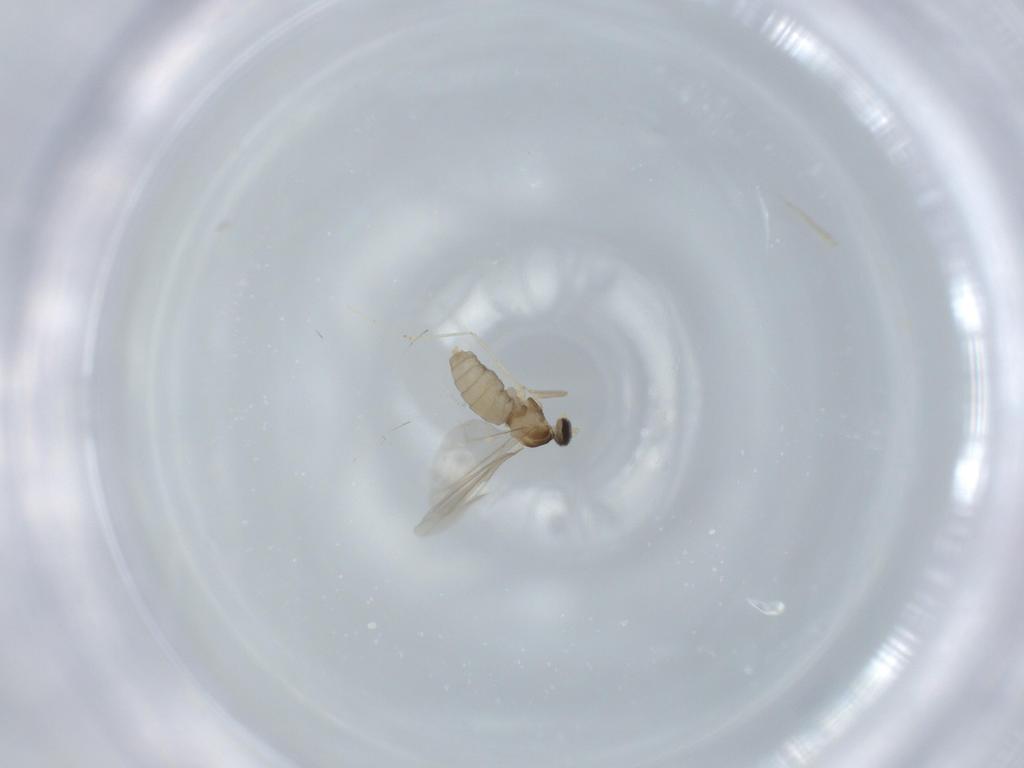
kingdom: Animalia
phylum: Arthropoda
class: Insecta
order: Diptera
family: Cecidomyiidae
